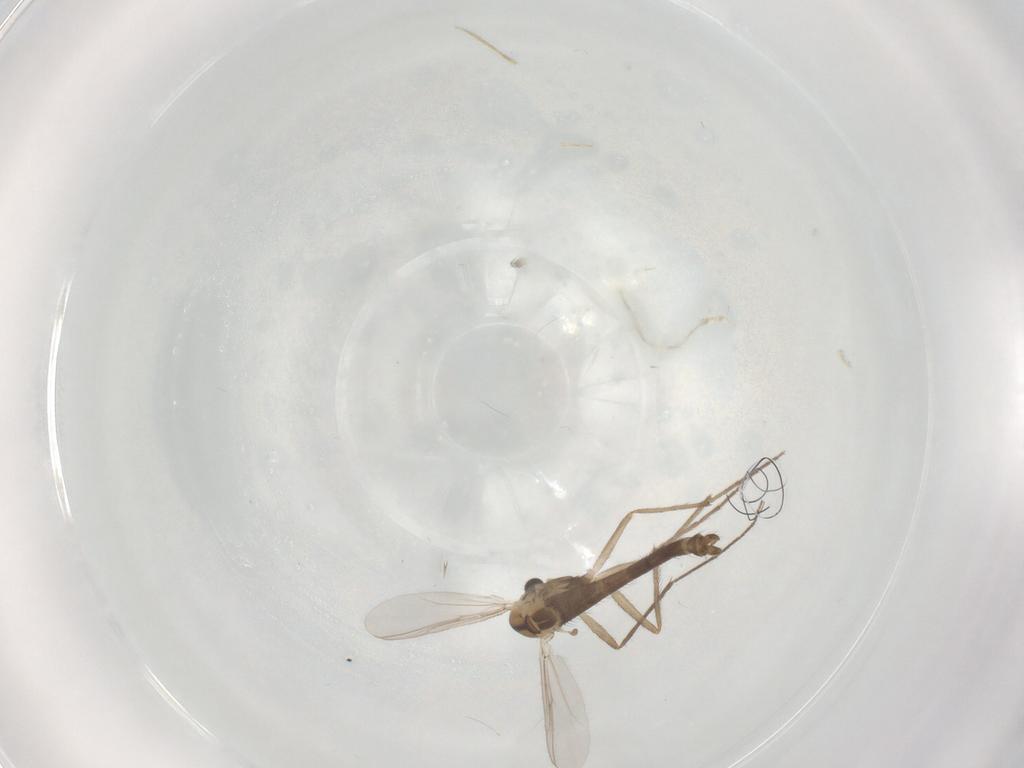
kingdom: Animalia
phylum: Arthropoda
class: Insecta
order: Diptera
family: Chironomidae
